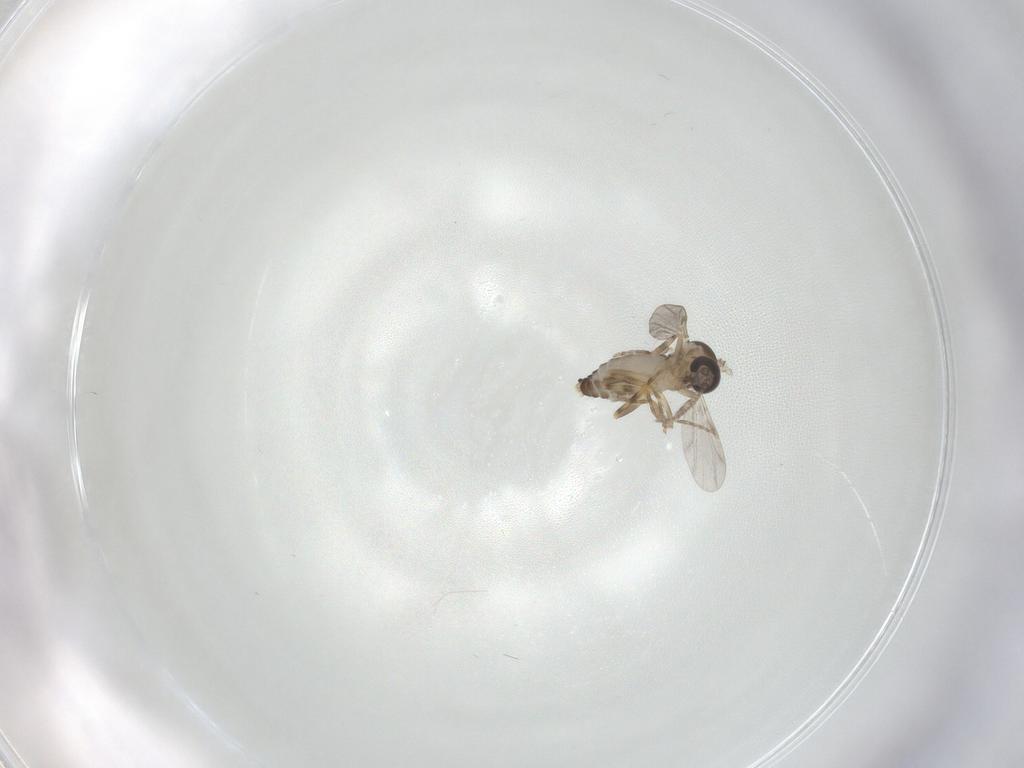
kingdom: Animalia
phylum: Arthropoda
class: Insecta
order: Diptera
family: Ceratopogonidae
